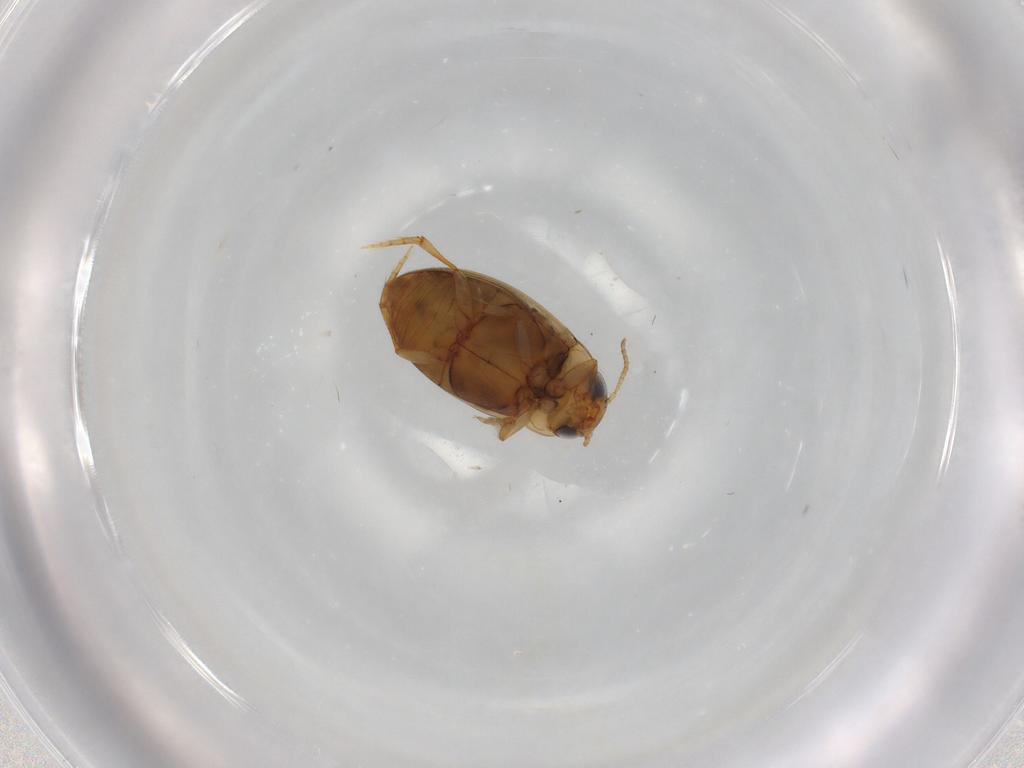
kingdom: Animalia
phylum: Arthropoda
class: Insecta
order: Coleoptera
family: Dytiscidae
